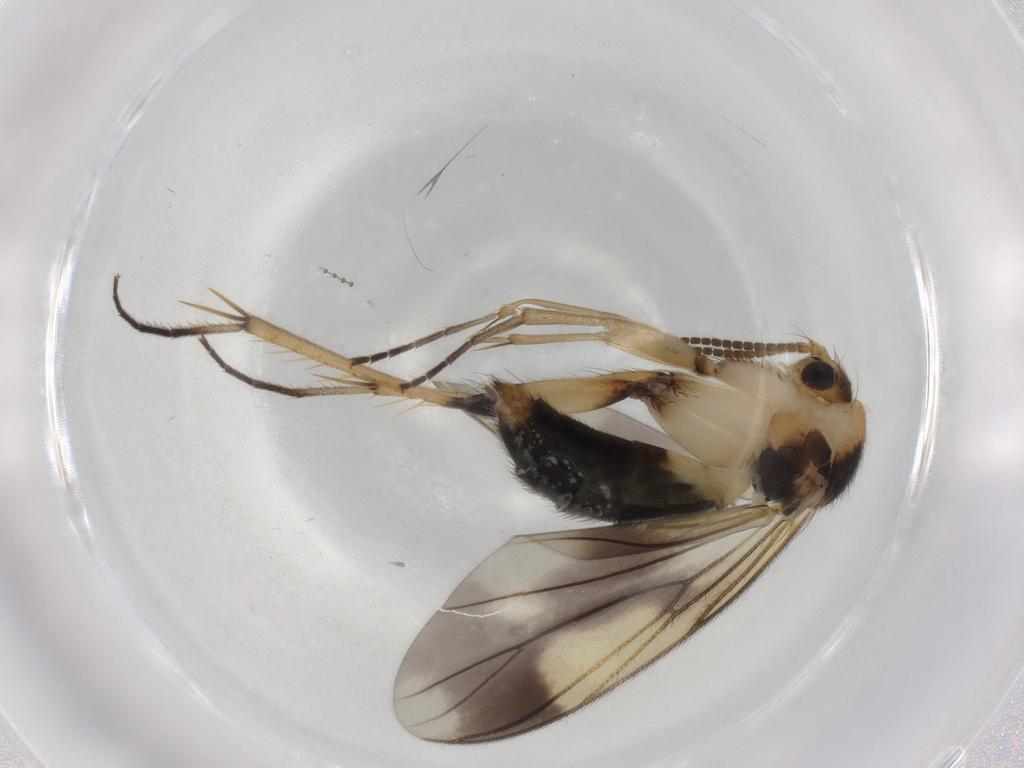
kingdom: Animalia
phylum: Arthropoda
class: Insecta
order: Diptera
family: Mycetophilidae
